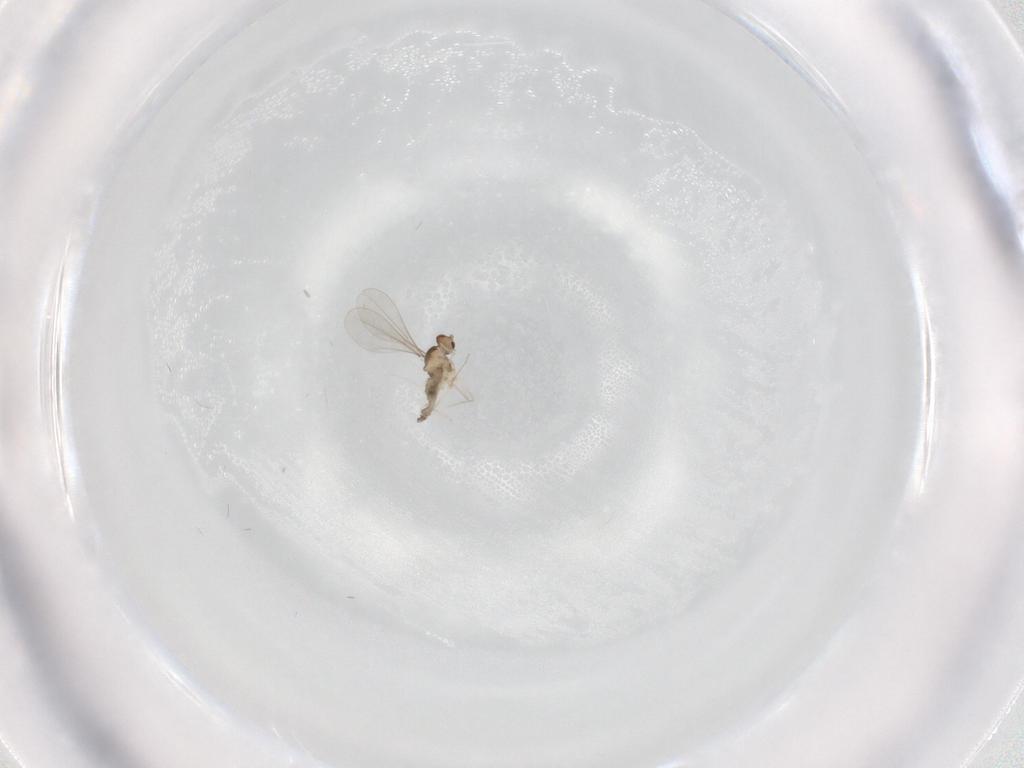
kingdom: Animalia
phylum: Arthropoda
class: Insecta
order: Diptera
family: Cecidomyiidae
